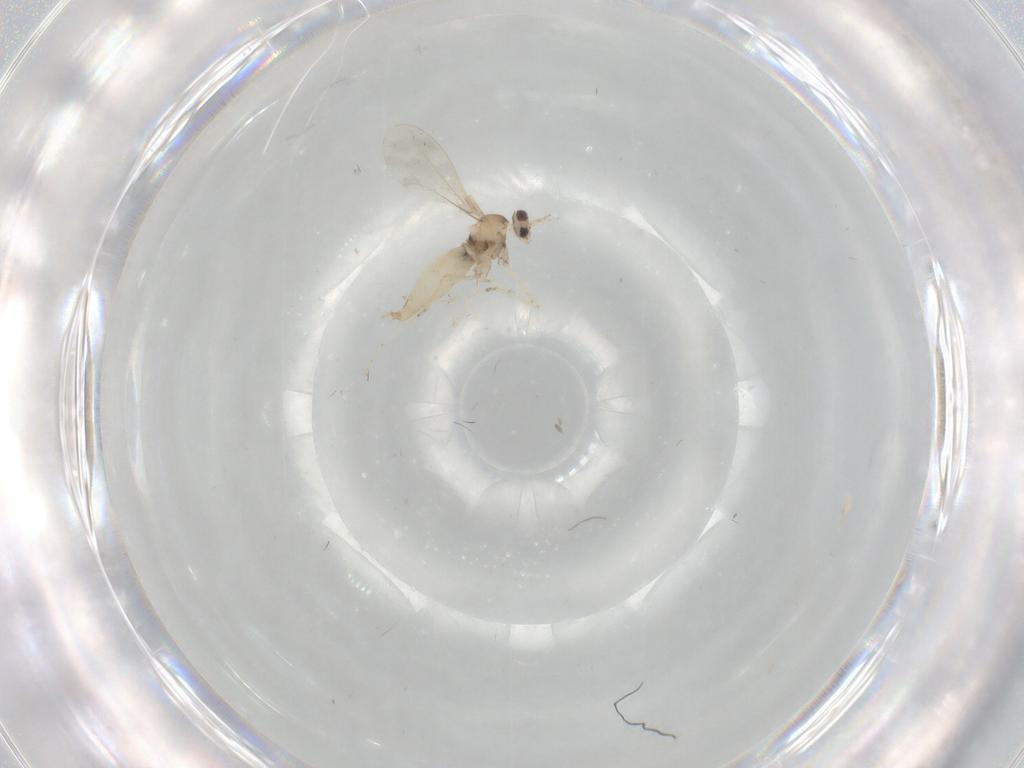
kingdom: Animalia
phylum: Arthropoda
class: Insecta
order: Diptera
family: Cecidomyiidae
